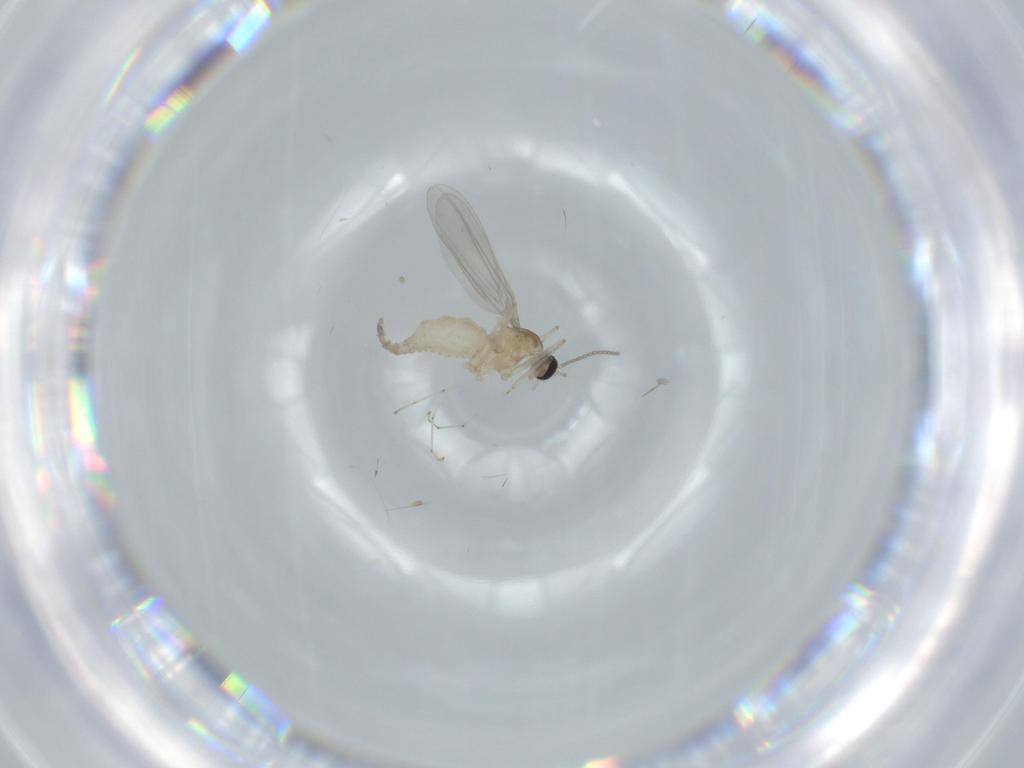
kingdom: Animalia
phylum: Arthropoda
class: Insecta
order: Diptera
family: Cecidomyiidae
